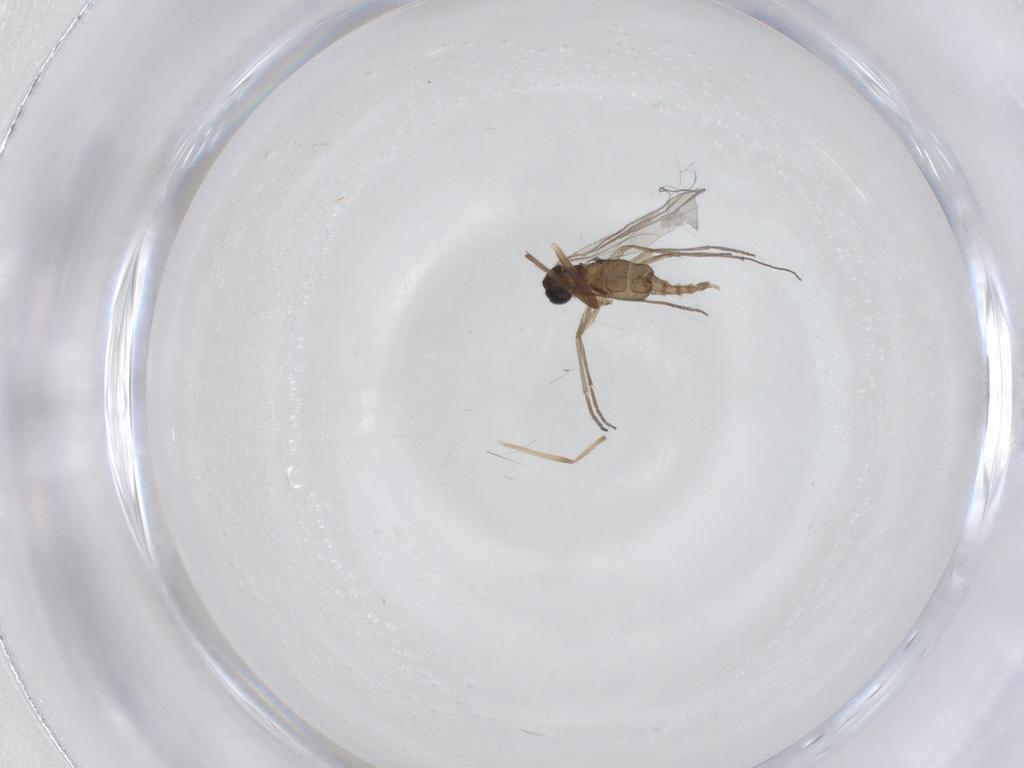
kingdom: Animalia
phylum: Arthropoda
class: Insecta
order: Diptera
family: Sciaridae
